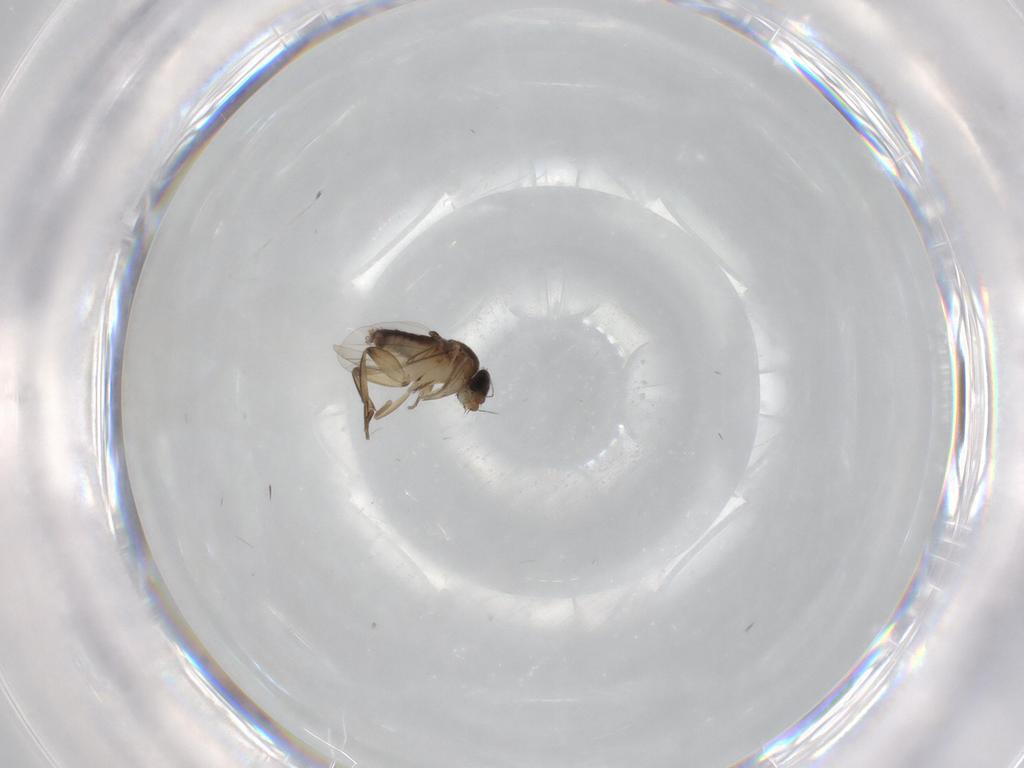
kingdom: Animalia
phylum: Arthropoda
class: Insecta
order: Diptera
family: Phoridae
